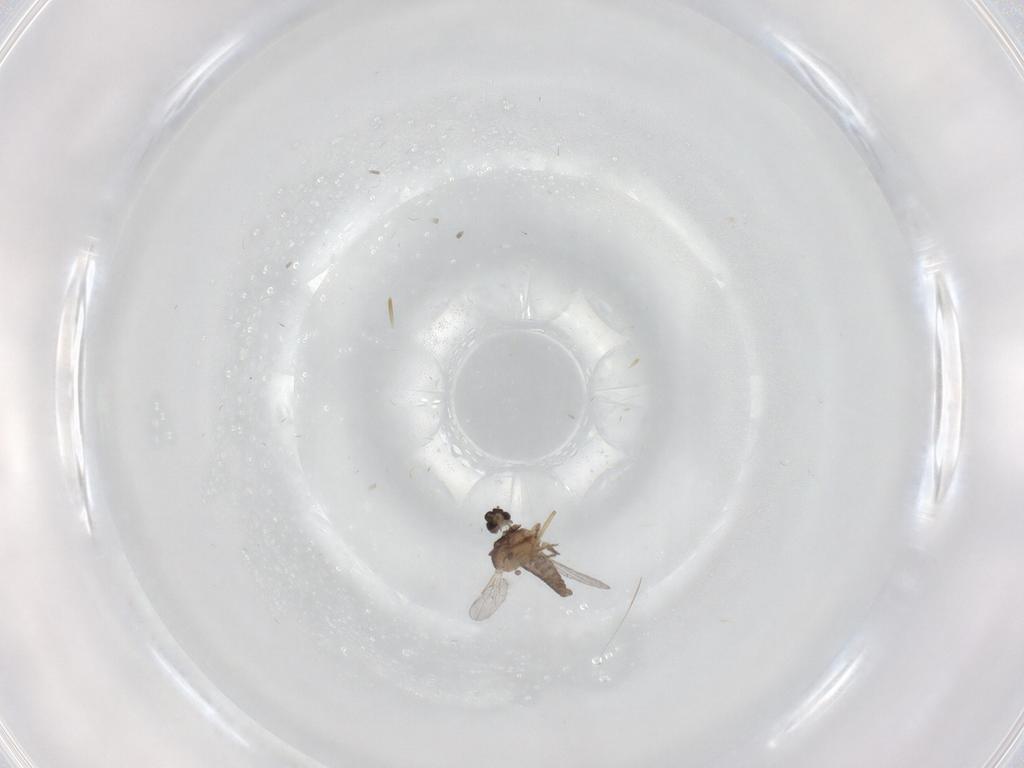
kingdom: Animalia
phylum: Arthropoda
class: Insecta
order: Diptera
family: Ceratopogonidae
